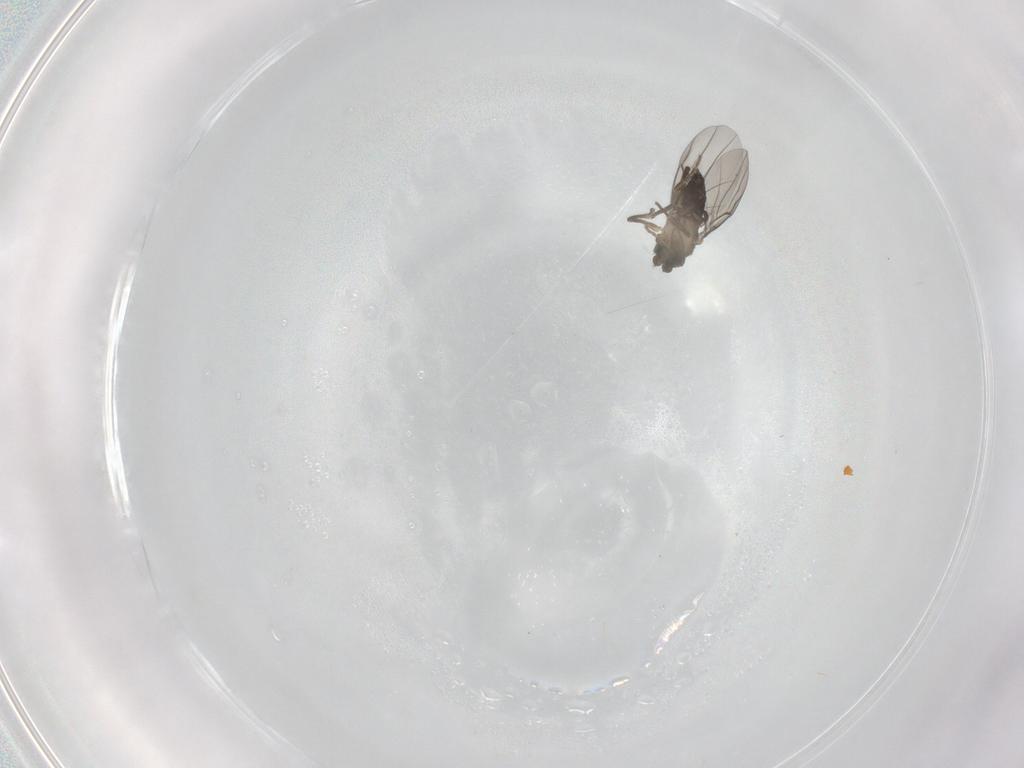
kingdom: Animalia
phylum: Arthropoda
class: Insecta
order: Diptera
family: Phoridae
